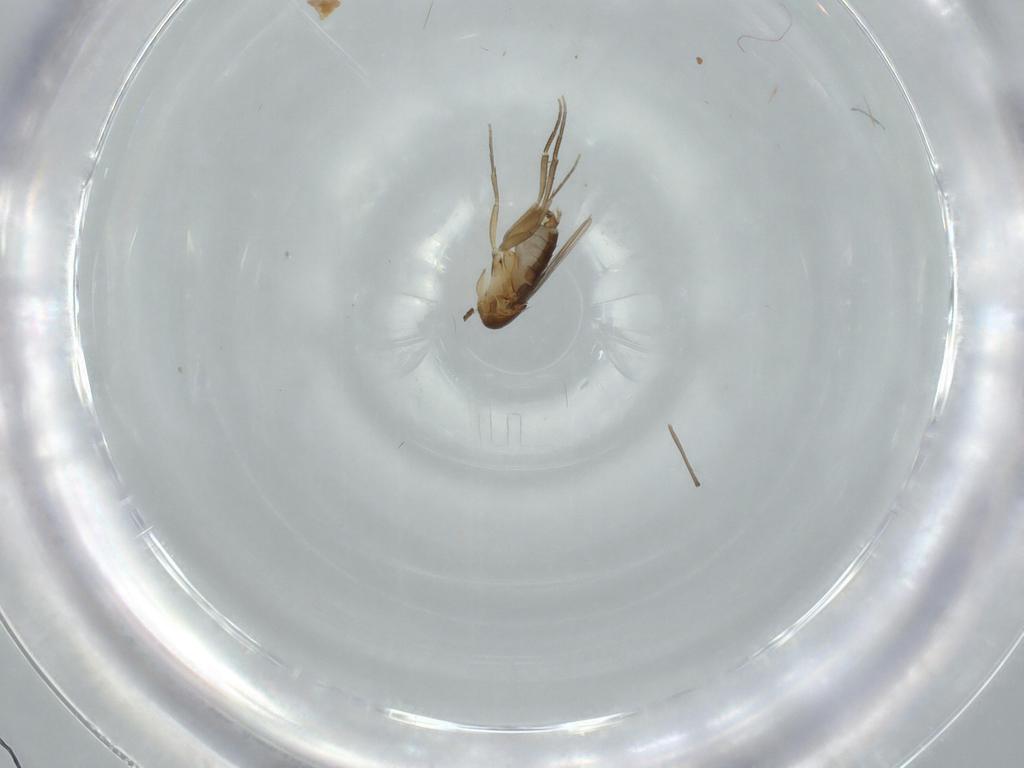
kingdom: Animalia
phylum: Arthropoda
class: Insecta
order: Diptera
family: Phoridae
